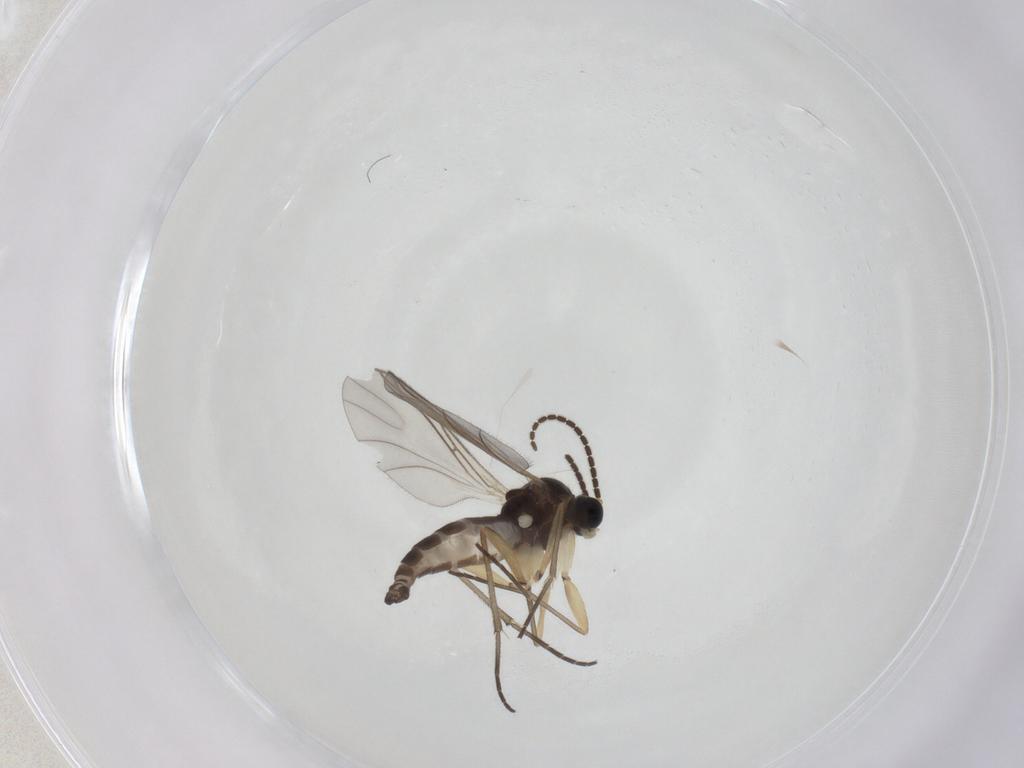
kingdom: Animalia
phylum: Arthropoda
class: Insecta
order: Diptera
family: Sciaridae
